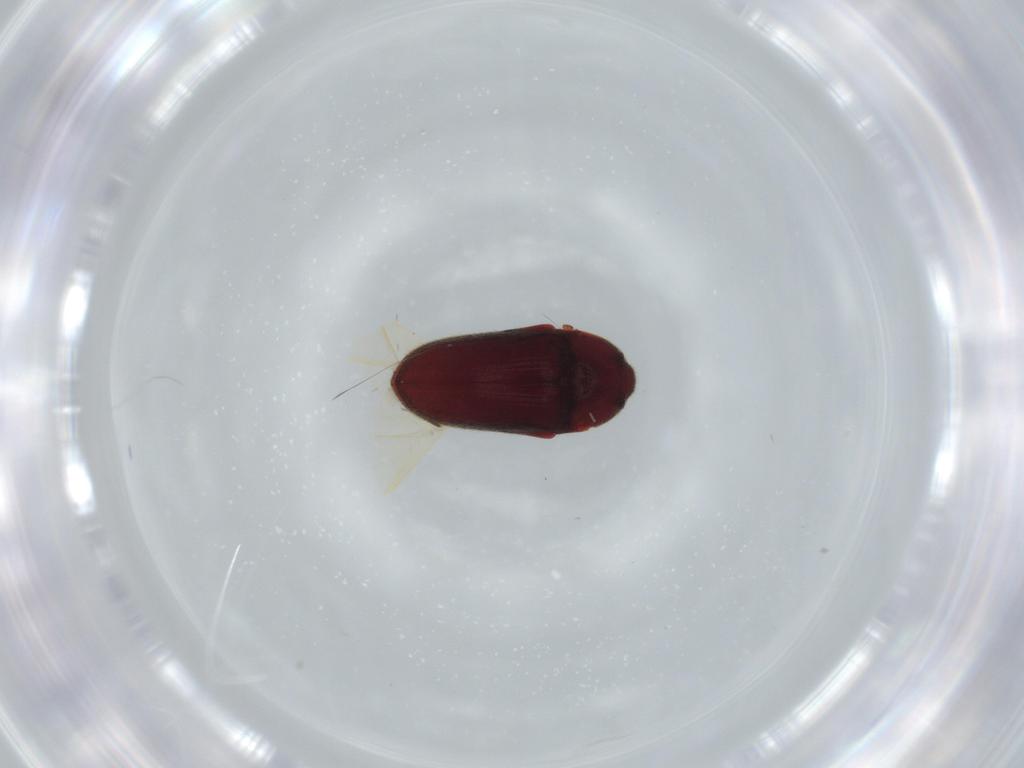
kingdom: Animalia
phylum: Arthropoda
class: Insecta
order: Coleoptera
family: Throscidae
